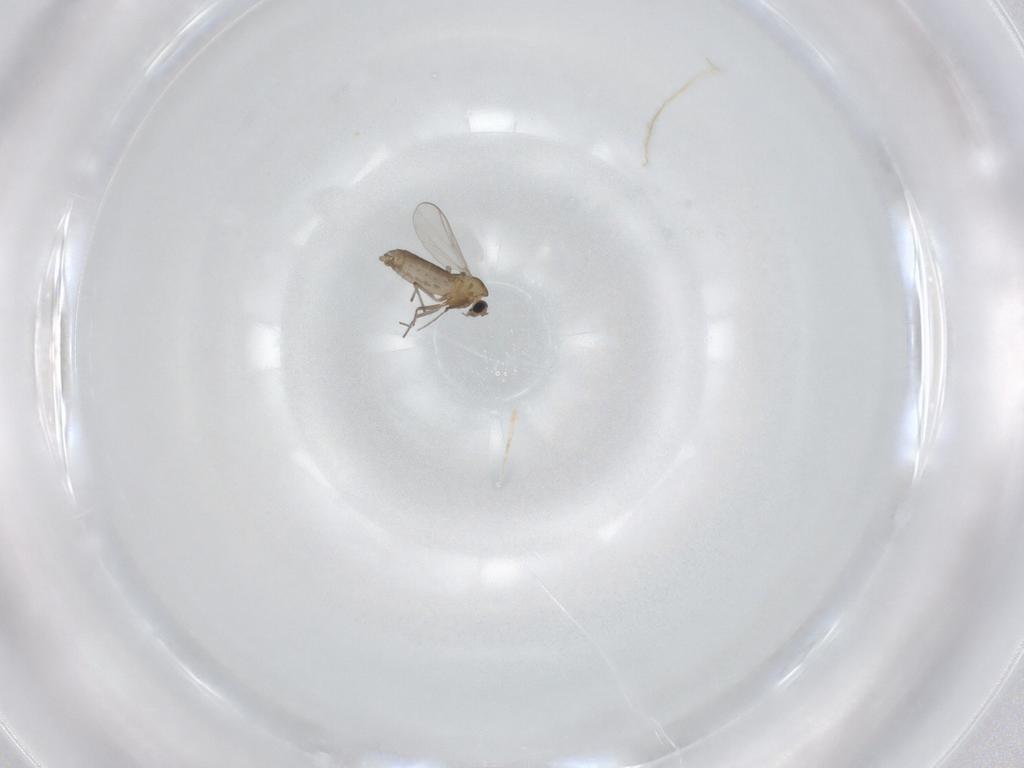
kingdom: Animalia
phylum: Arthropoda
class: Insecta
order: Diptera
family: Chironomidae
